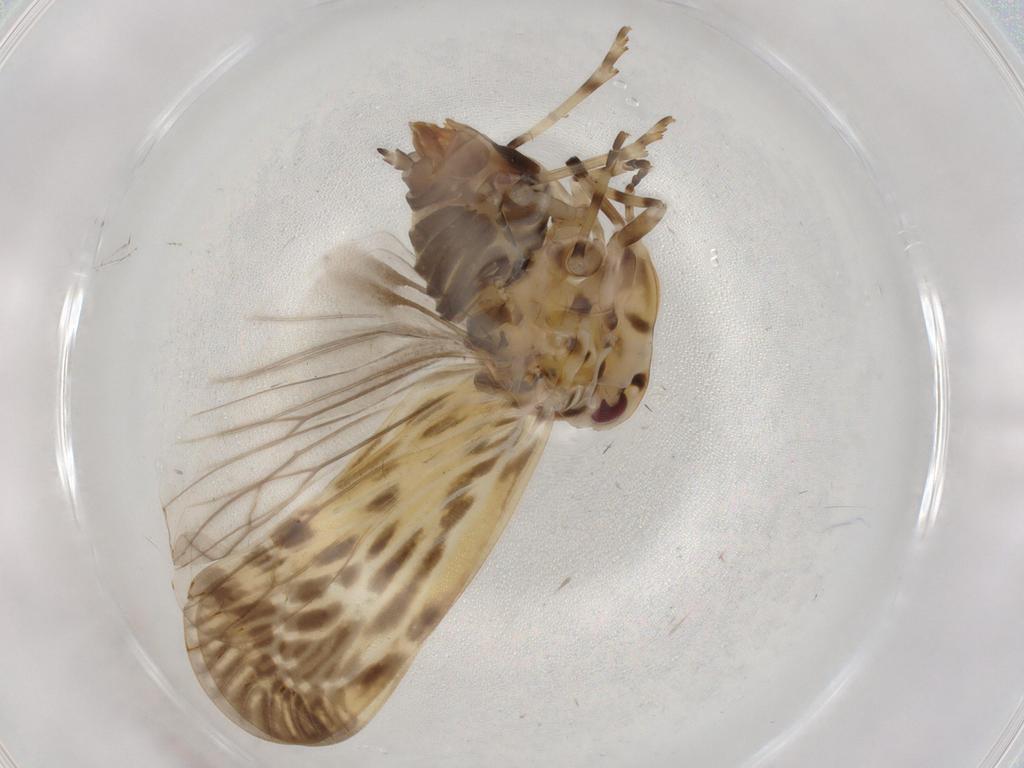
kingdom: Animalia
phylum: Arthropoda
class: Insecta
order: Hemiptera
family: Derbidae
